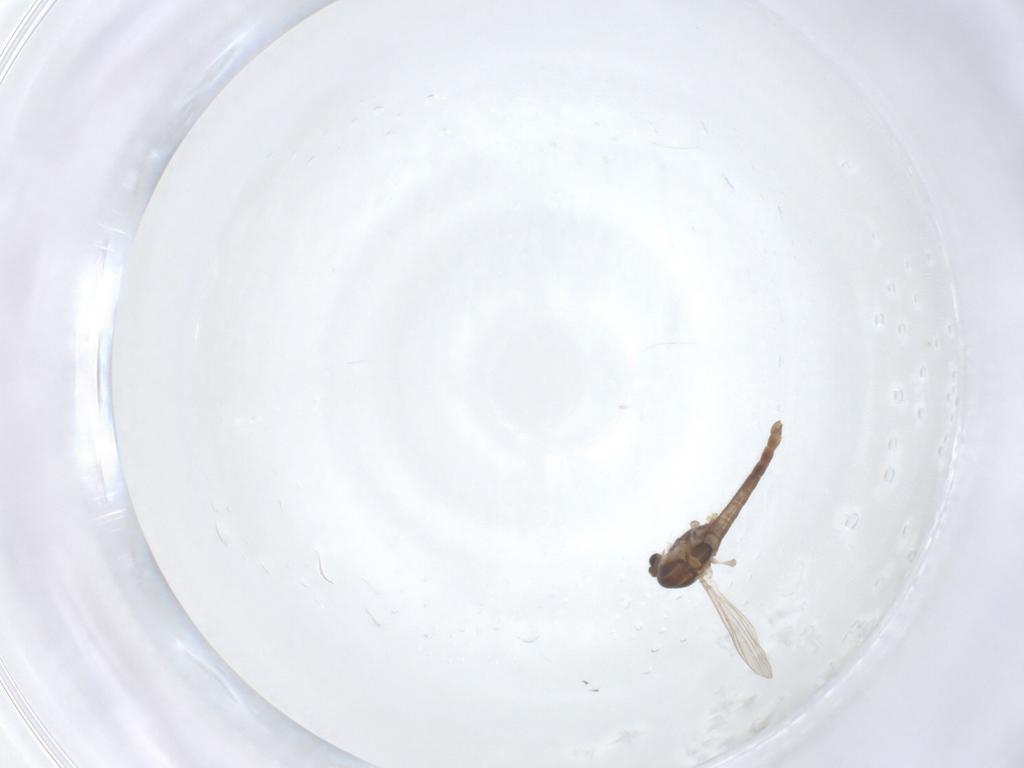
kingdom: Animalia
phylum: Arthropoda
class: Insecta
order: Diptera
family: Chironomidae
